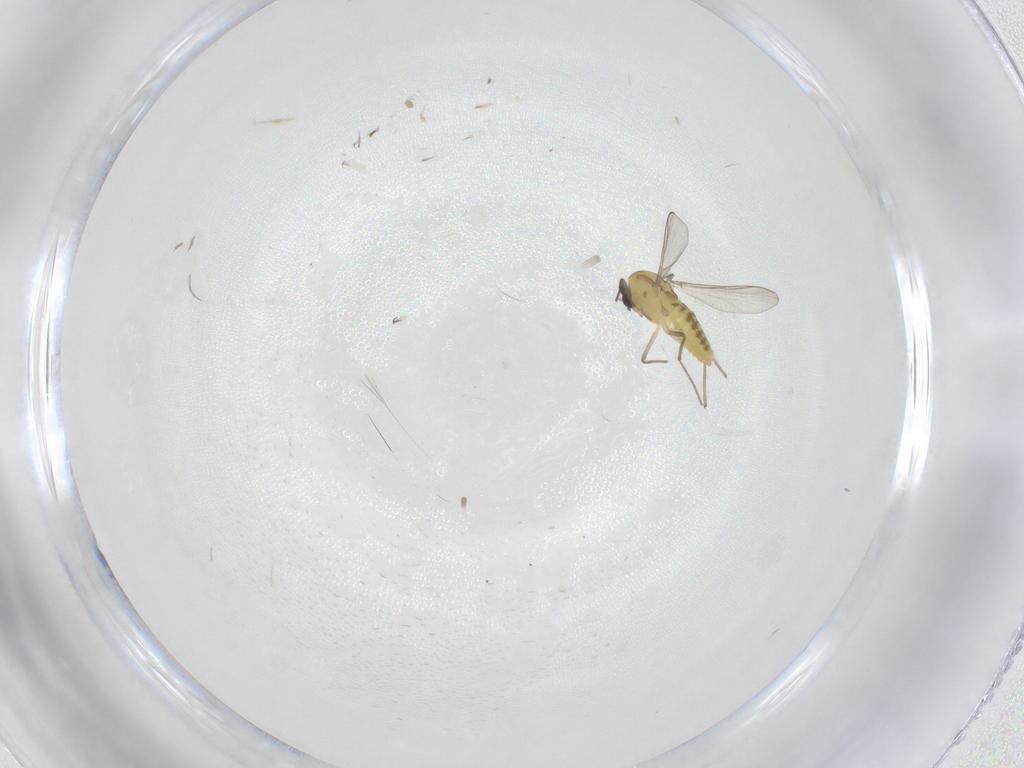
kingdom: Animalia
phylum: Arthropoda
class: Insecta
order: Diptera
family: Chironomidae
